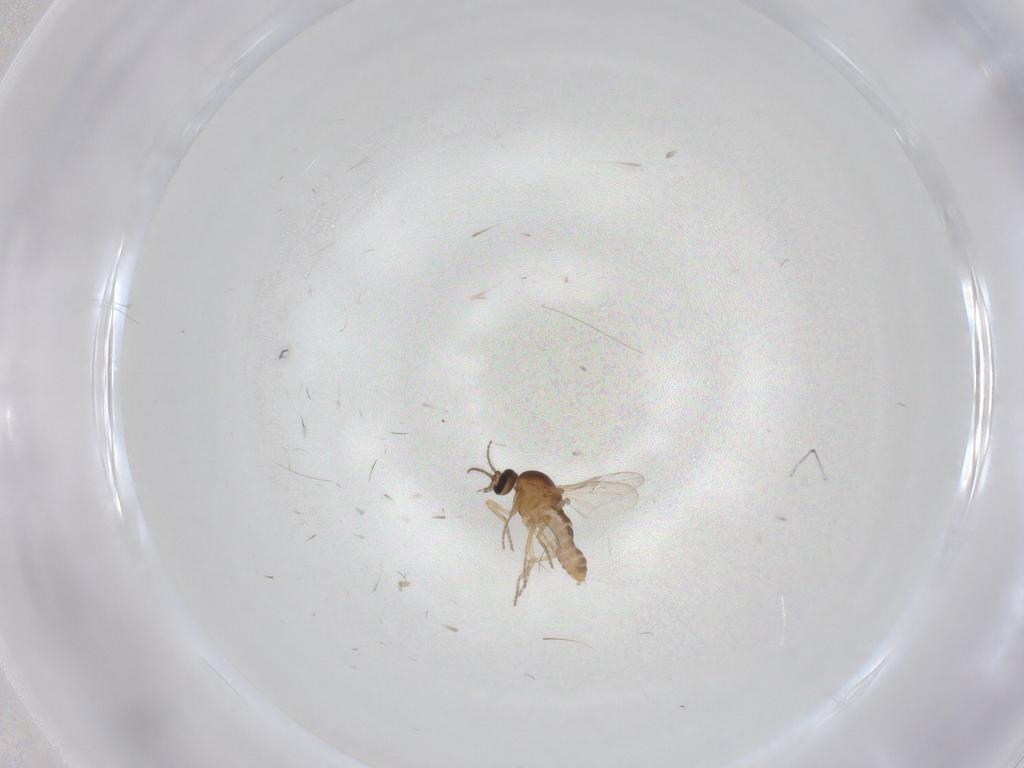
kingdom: Animalia
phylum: Arthropoda
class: Insecta
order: Diptera
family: Ceratopogonidae
